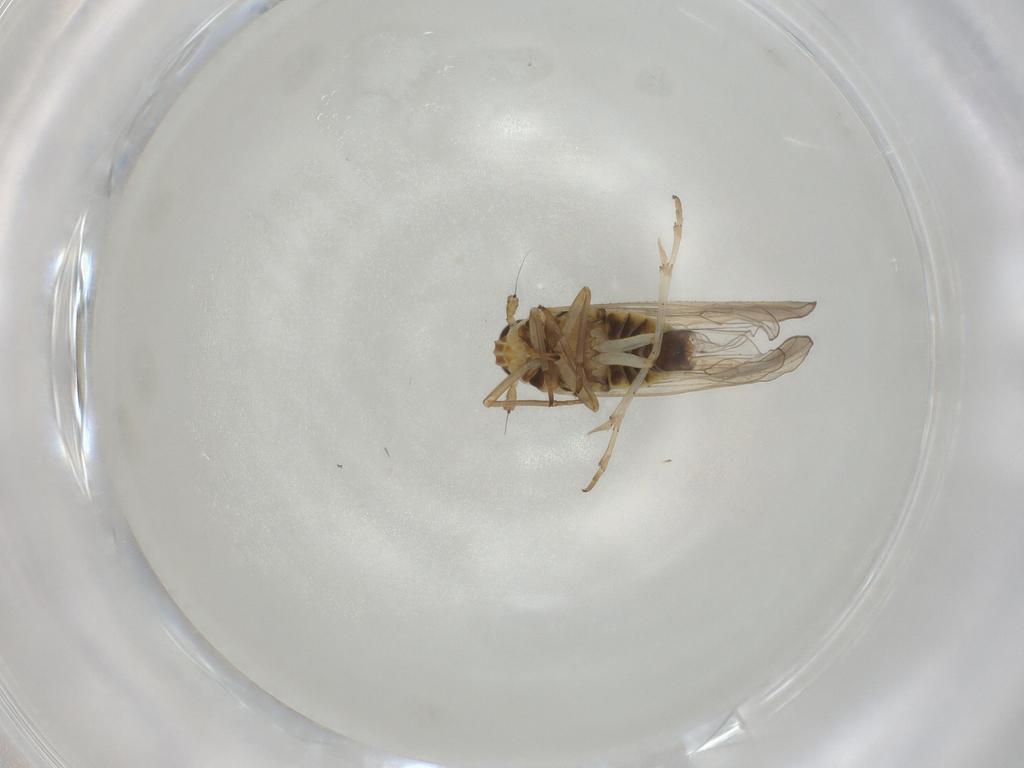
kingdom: Animalia
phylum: Arthropoda
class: Insecta
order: Hemiptera
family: Delphacidae
